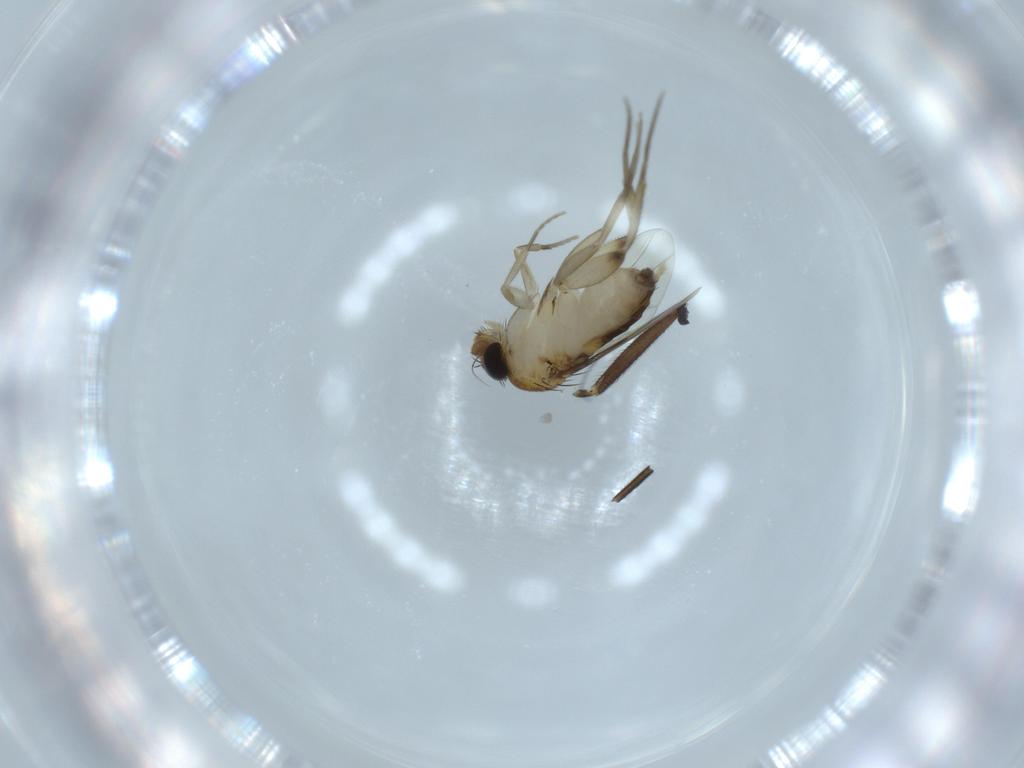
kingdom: Animalia
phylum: Arthropoda
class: Insecta
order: Diptera
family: Phoridae
